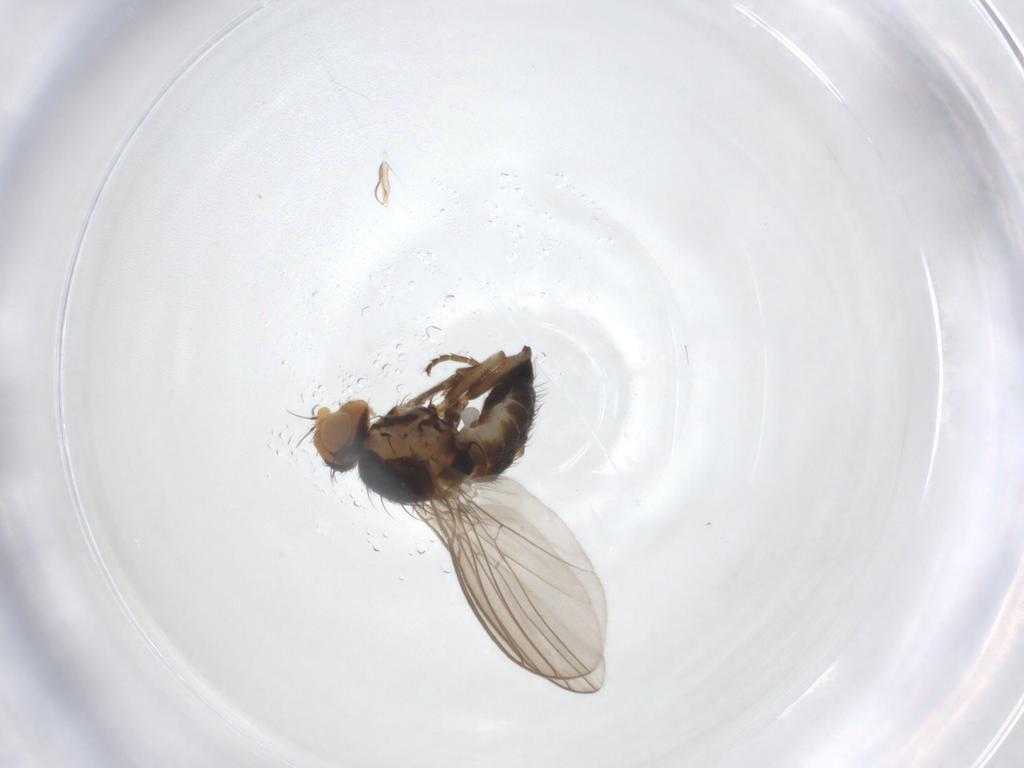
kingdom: Animalia
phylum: Arthropoda
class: Insecta
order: Diptera
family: Agromyzidae
